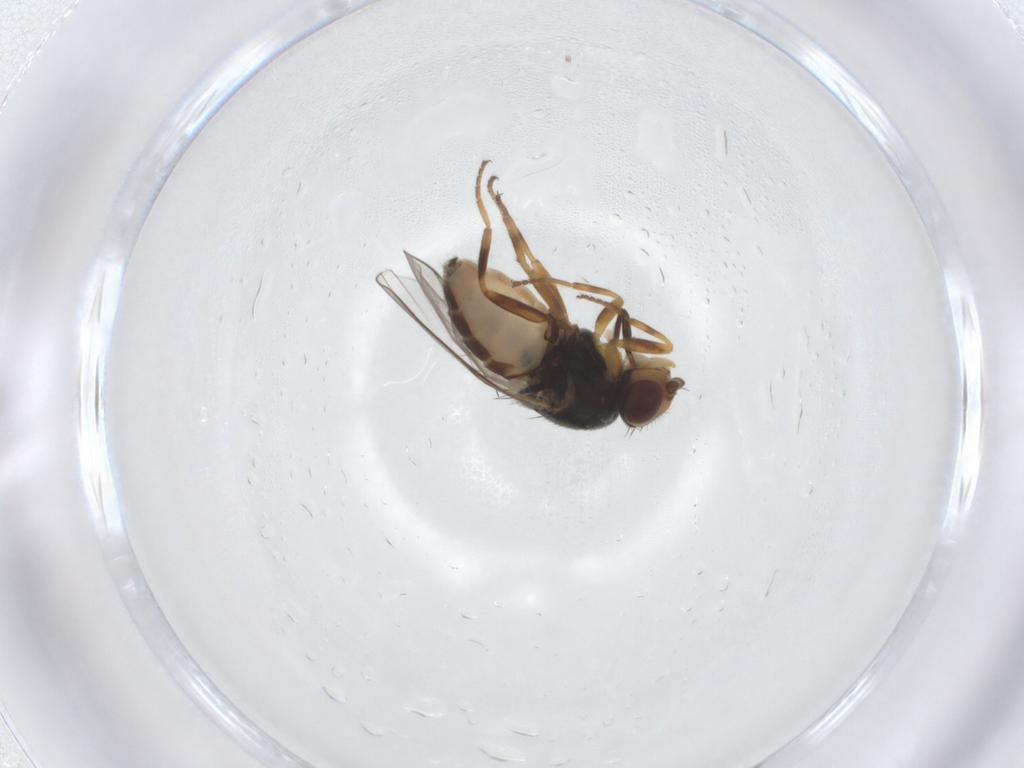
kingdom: Animalia
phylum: Arthropoda
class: Insecta
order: Diptera
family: Chloropidae
